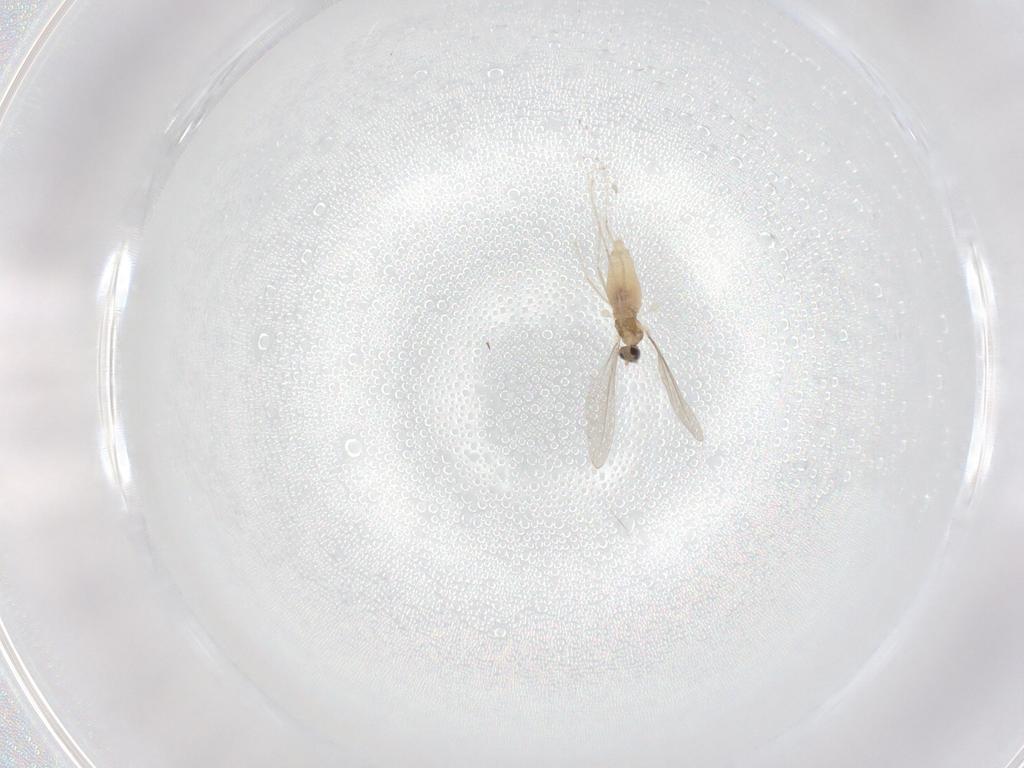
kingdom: Animalia
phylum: Arthropoda
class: Insecta
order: Diptera
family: Cecidomyiidae
